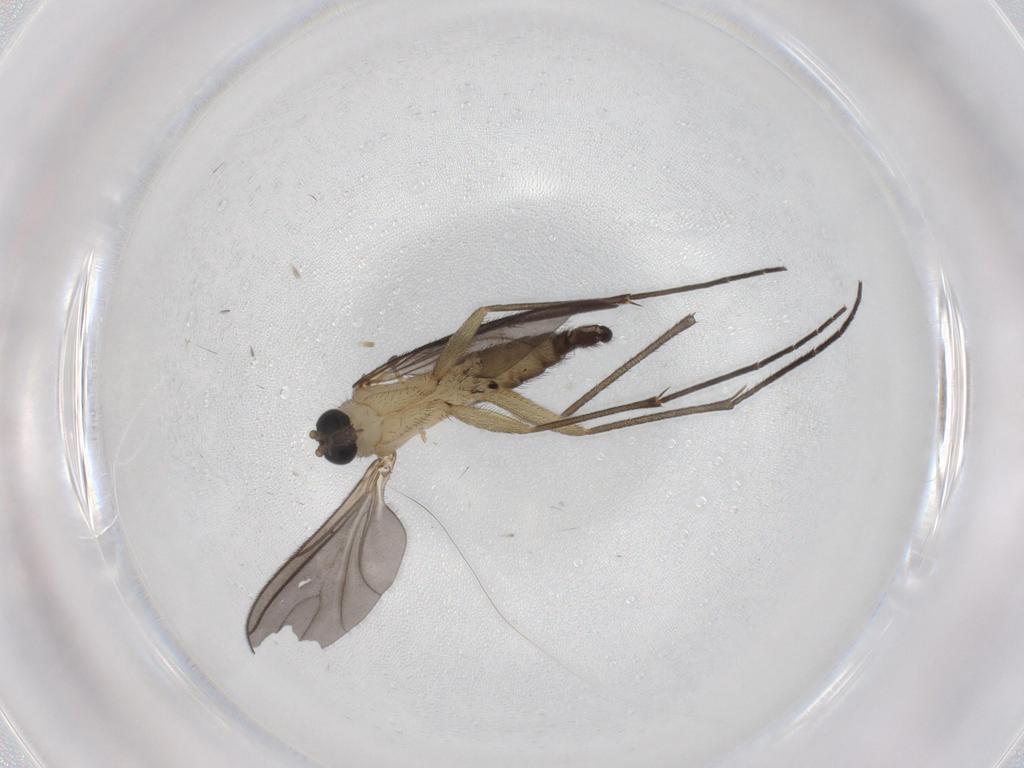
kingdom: Animalia
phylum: Arthropoda
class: Insecta
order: Diptera
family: Sciaridae
